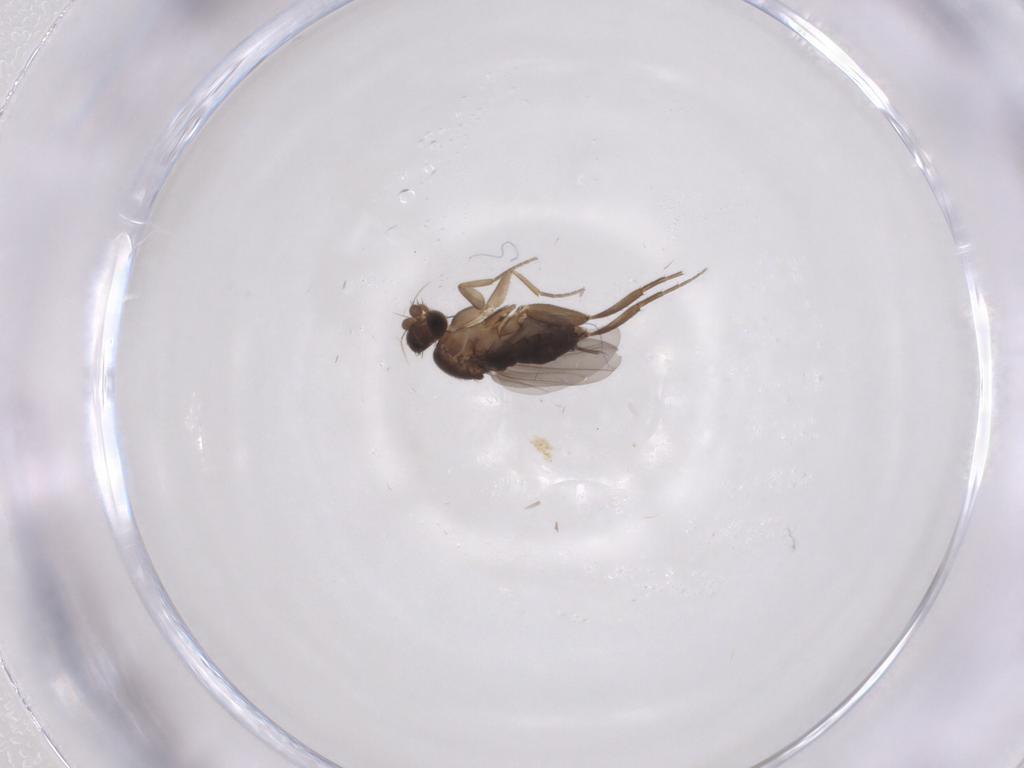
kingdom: Animalia
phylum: Arthropoda
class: Insecta
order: Diptera
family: Phoridae
